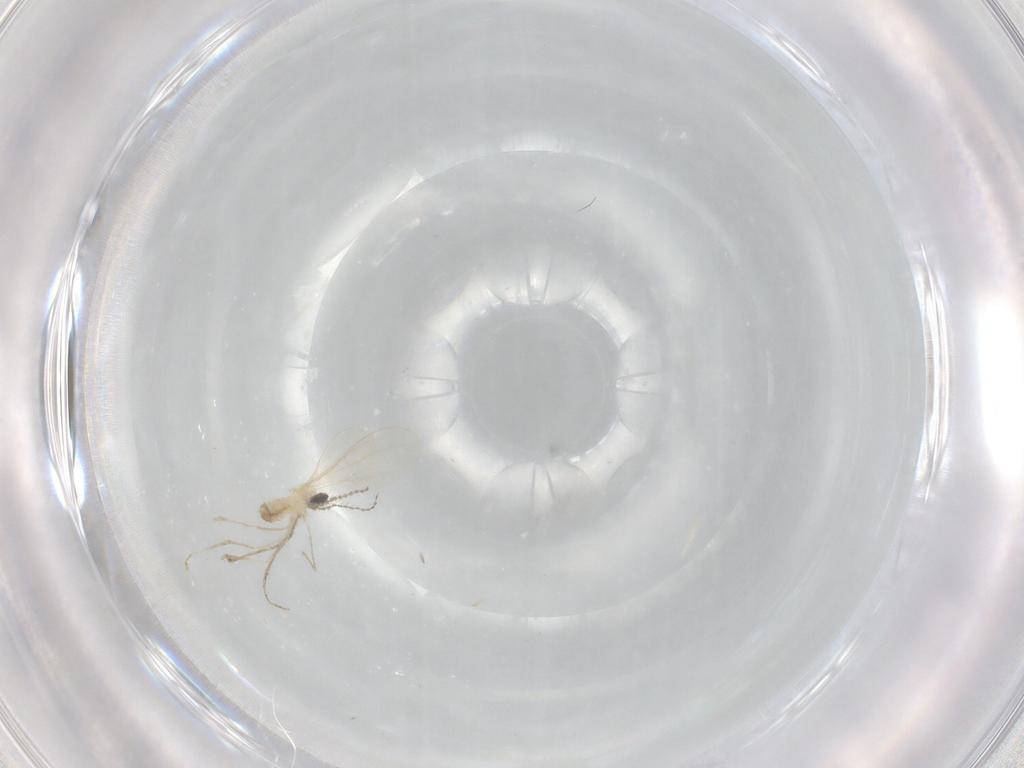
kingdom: Animalia
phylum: Arthropoda
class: Insecta
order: Diptera
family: Cecidomyiidae
